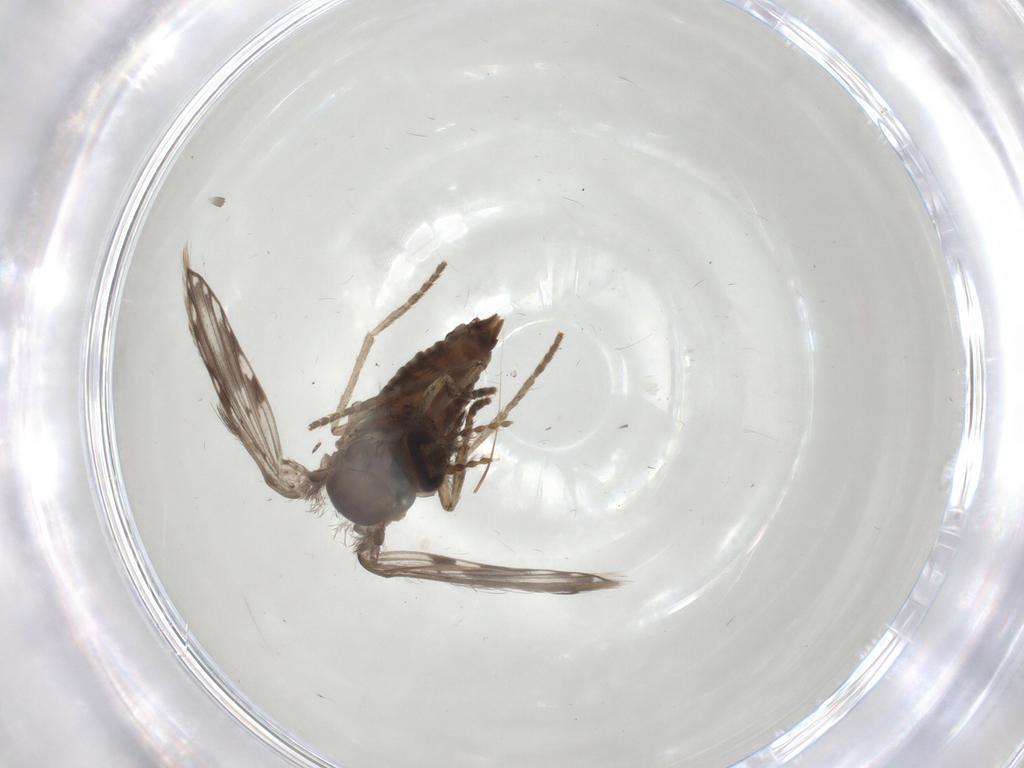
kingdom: Animalia
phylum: Arthropoda
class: Insecta
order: Diptera
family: Psychodidae
